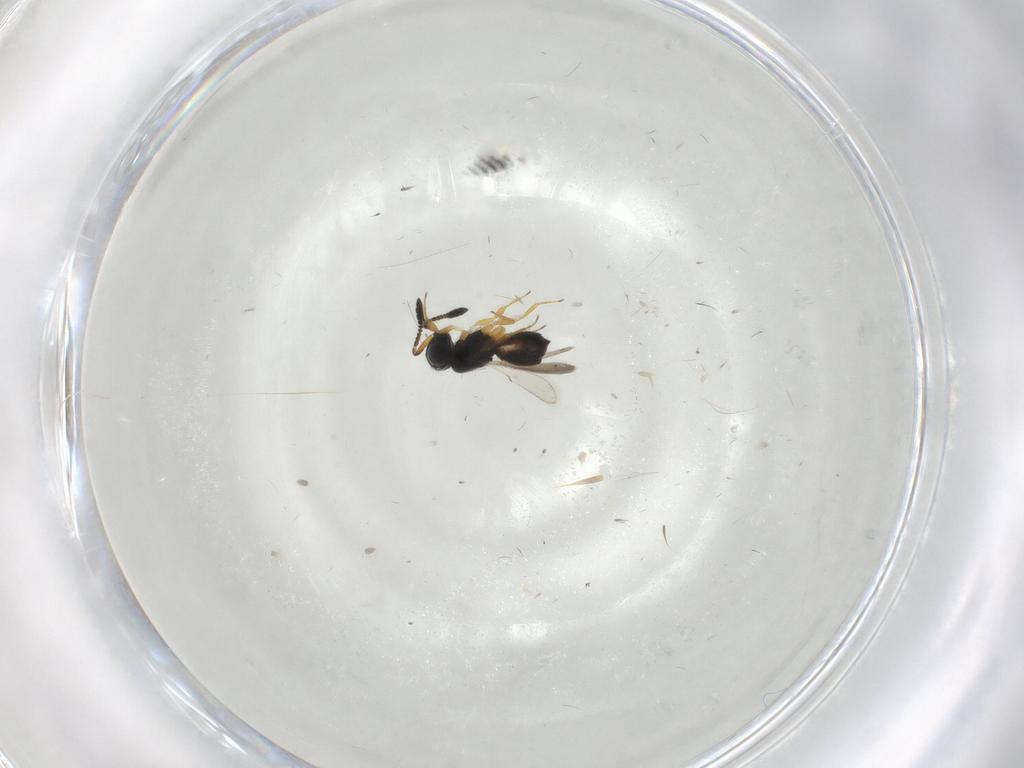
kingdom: Animalia
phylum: Arthropoda
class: Insecta
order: Hymenoptera
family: Scelionidae
